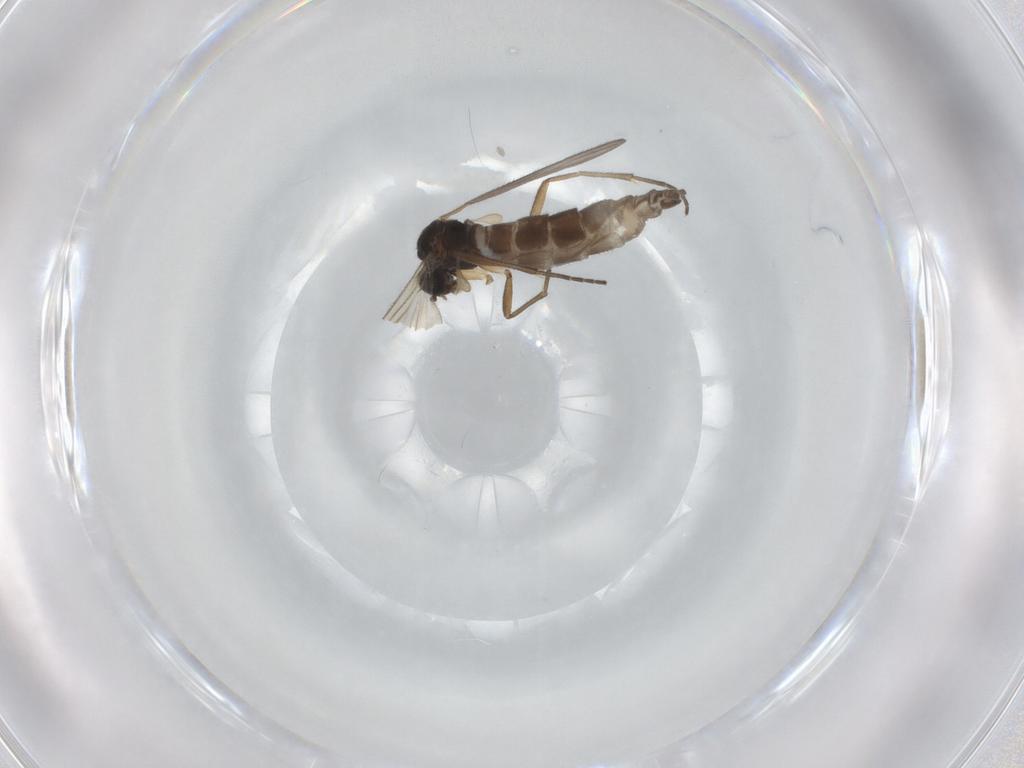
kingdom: Animalia
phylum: Arthropoda
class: Insecta
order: Diptera
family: Sciaridae
